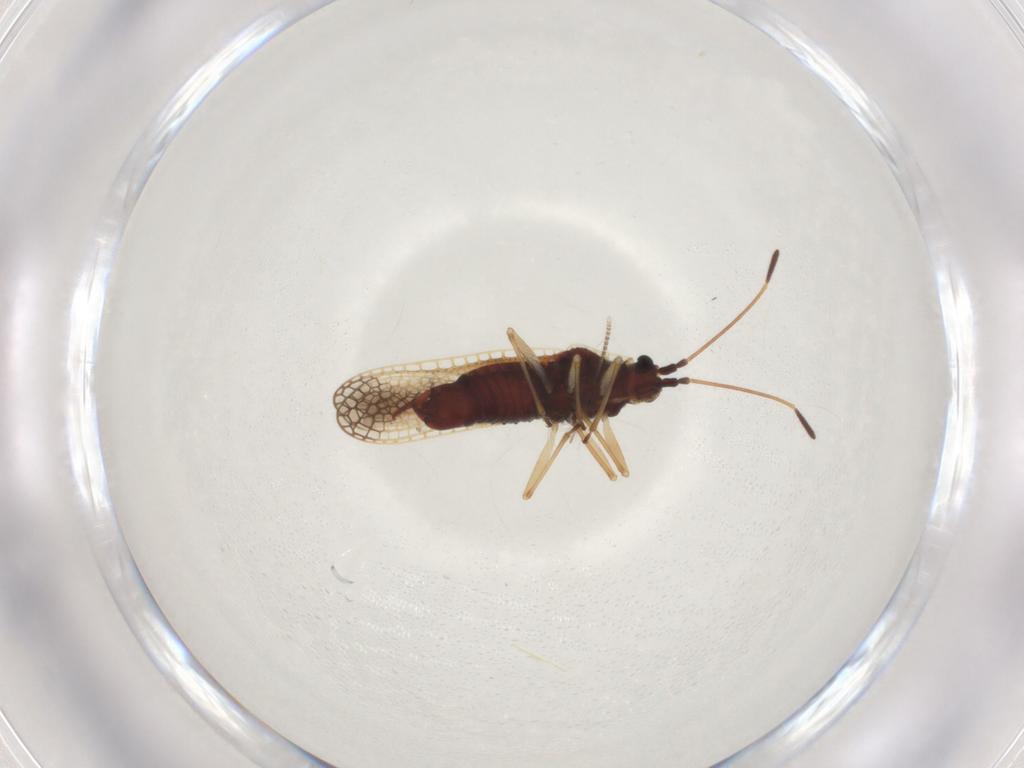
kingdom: Animalia
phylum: Arthropoda
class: Insecta
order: Hemiptera
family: Tingidae
